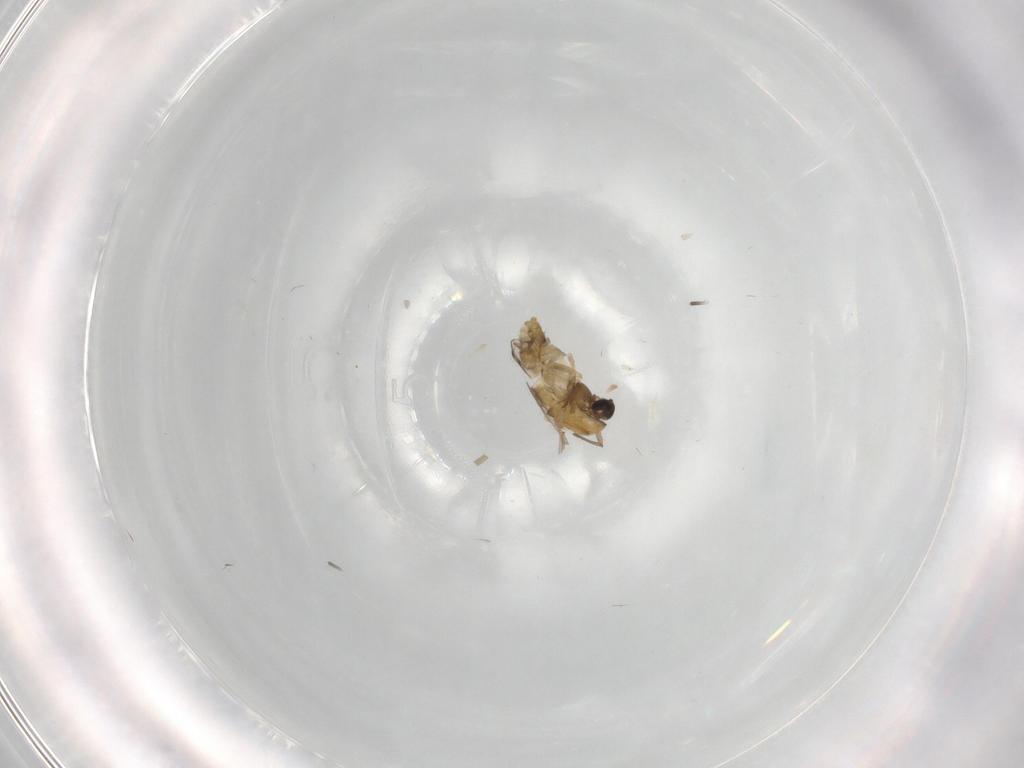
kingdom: Animalia
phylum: Arthropoda
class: Insecta
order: Diptera
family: Chironomidae
